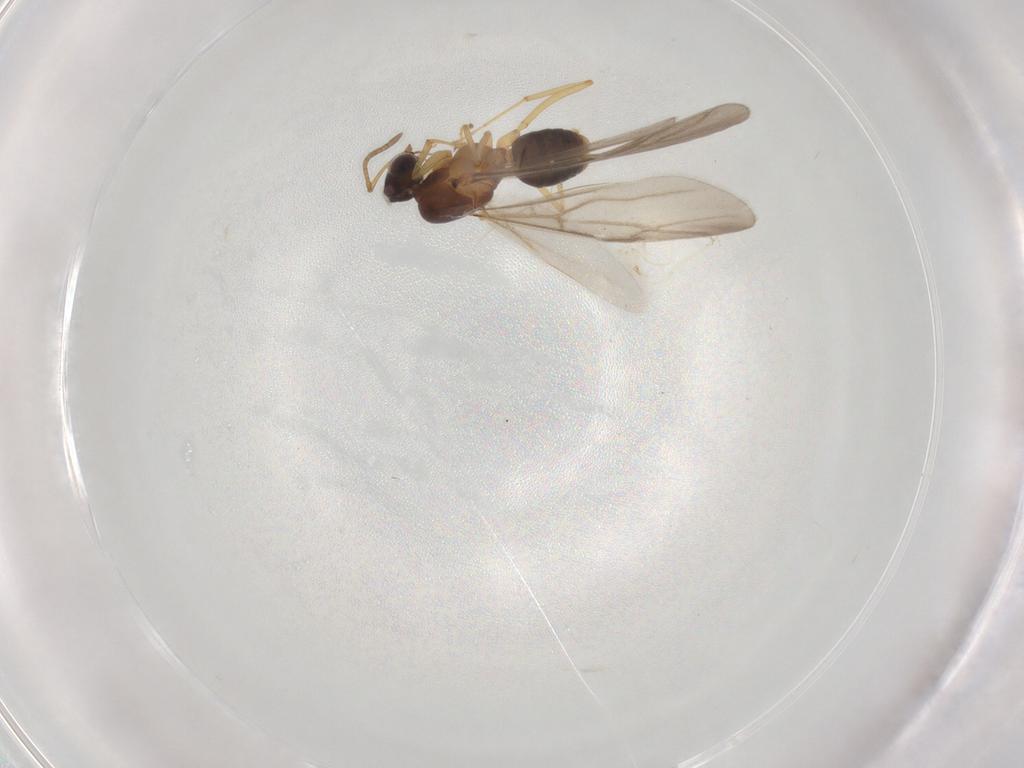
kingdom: Animalia
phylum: Arthropoda
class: Insecta
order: Hymenoptera
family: Formicidae
